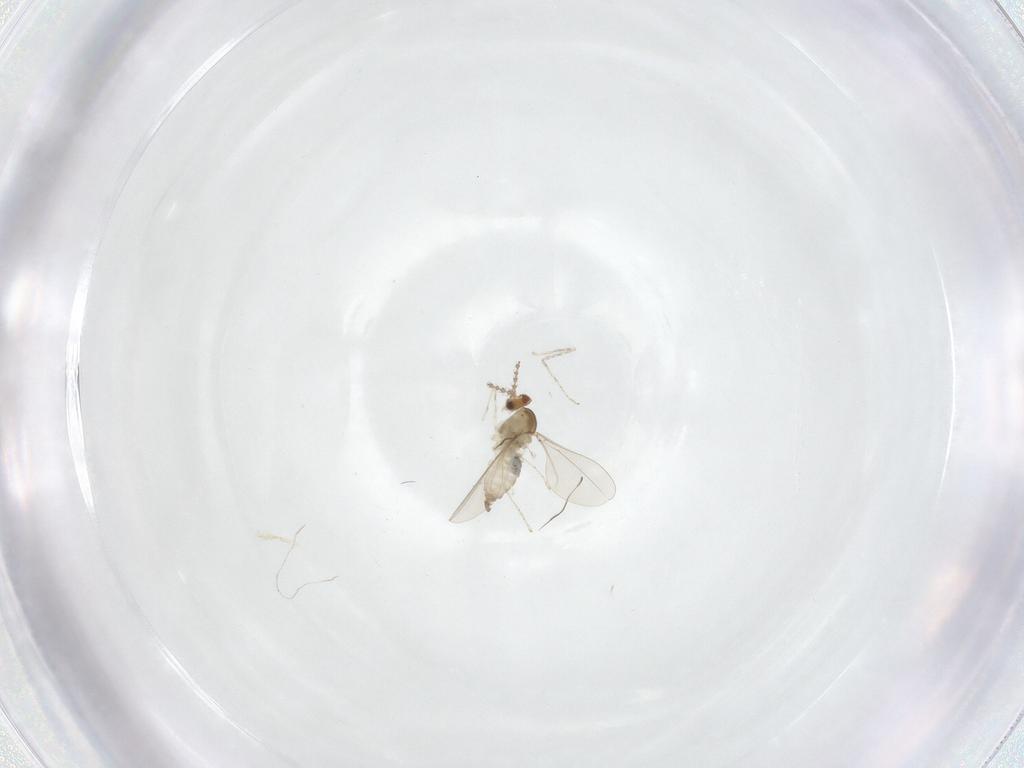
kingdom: Animalia
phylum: Arthropoda
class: Insecta
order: Diptera
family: Cecidomyiidae
